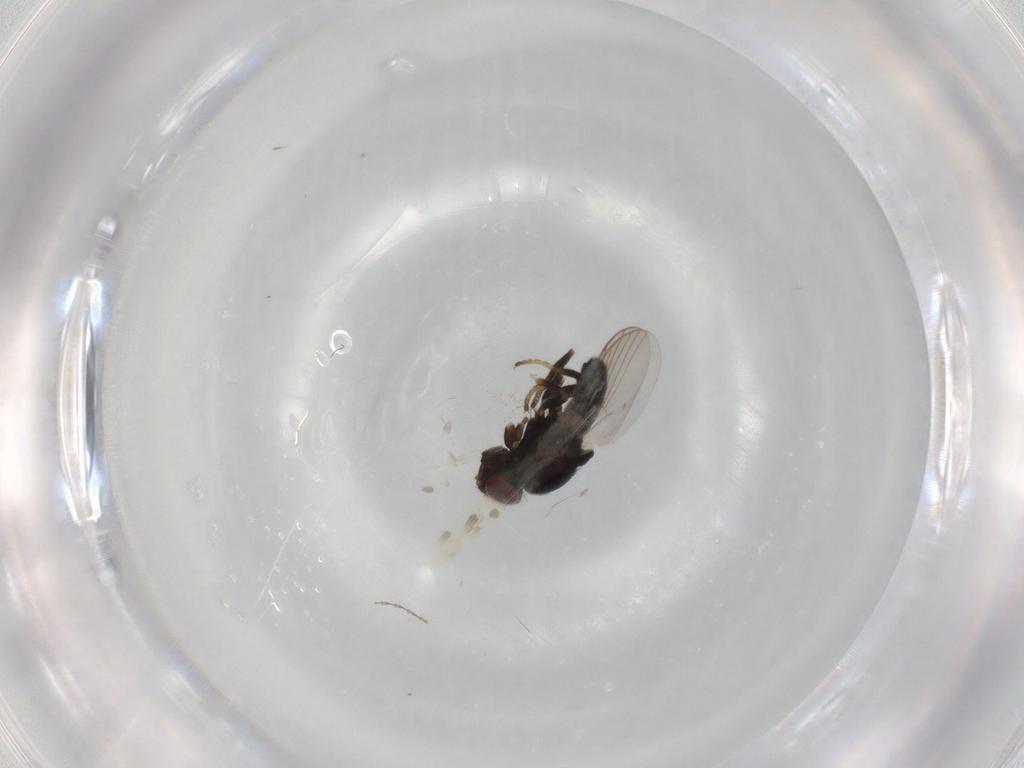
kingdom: Animalia
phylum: Arthropoda
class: Insecta
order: Diptera
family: Chloropidae
